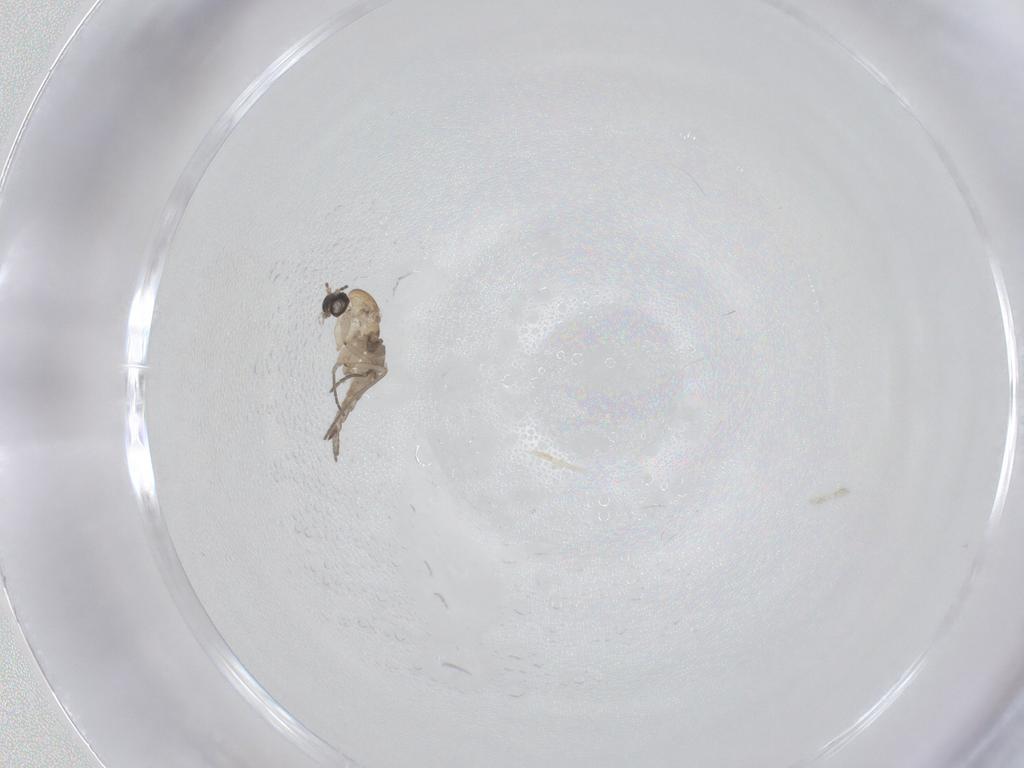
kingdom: Animalia
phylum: Arthropoda
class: Insecta
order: Diptera
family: Sciaridae
